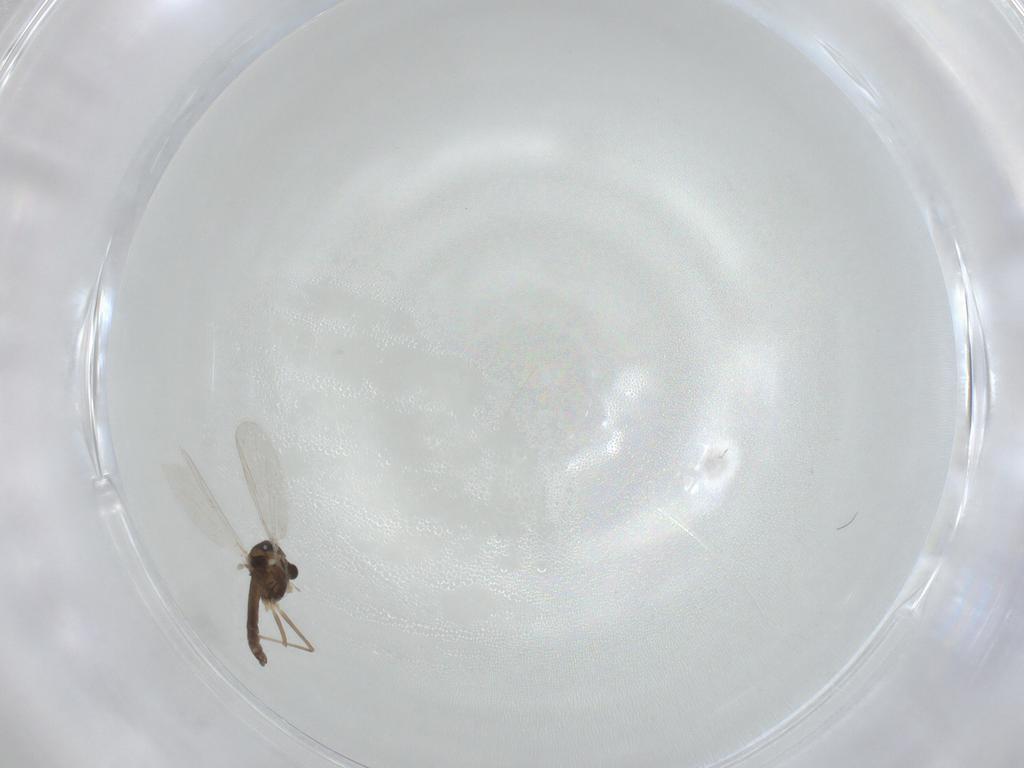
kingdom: Animalia
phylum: Arthropoda
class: Insecta
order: Diptera
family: Chironomidae
